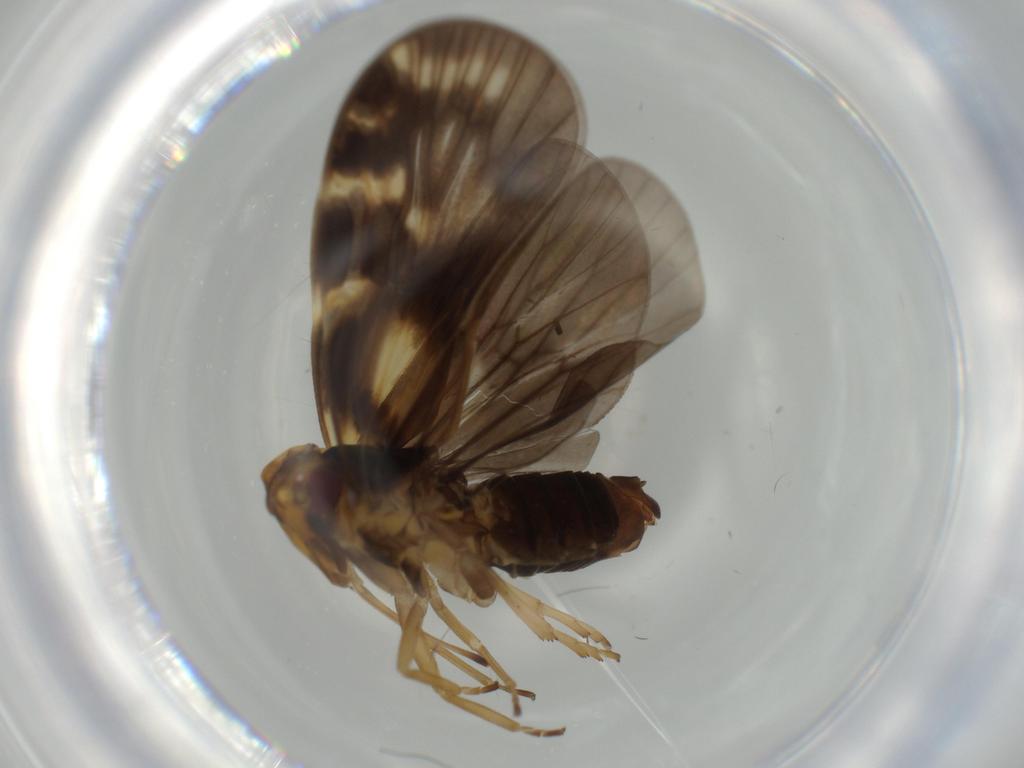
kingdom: Animalia
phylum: Arthropoda
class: Insecta
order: Hemiptera
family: Cixiidae
